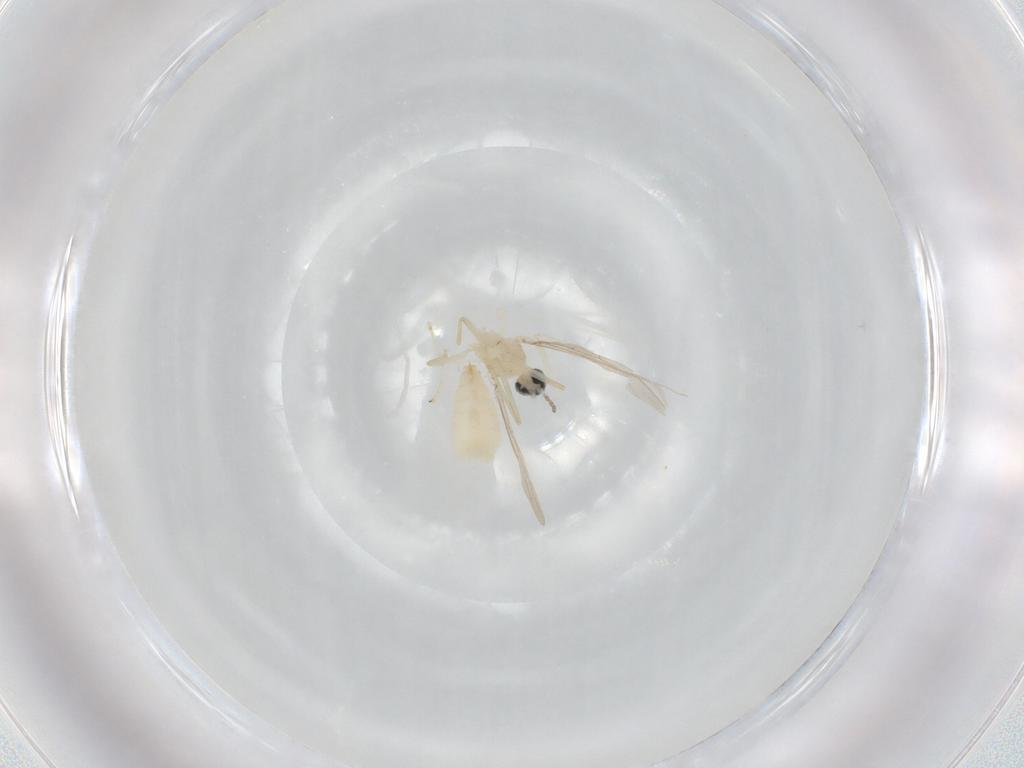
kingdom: Animalia
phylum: Arthropoda
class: Insecta
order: Diptera
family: Cecidomyiidae
